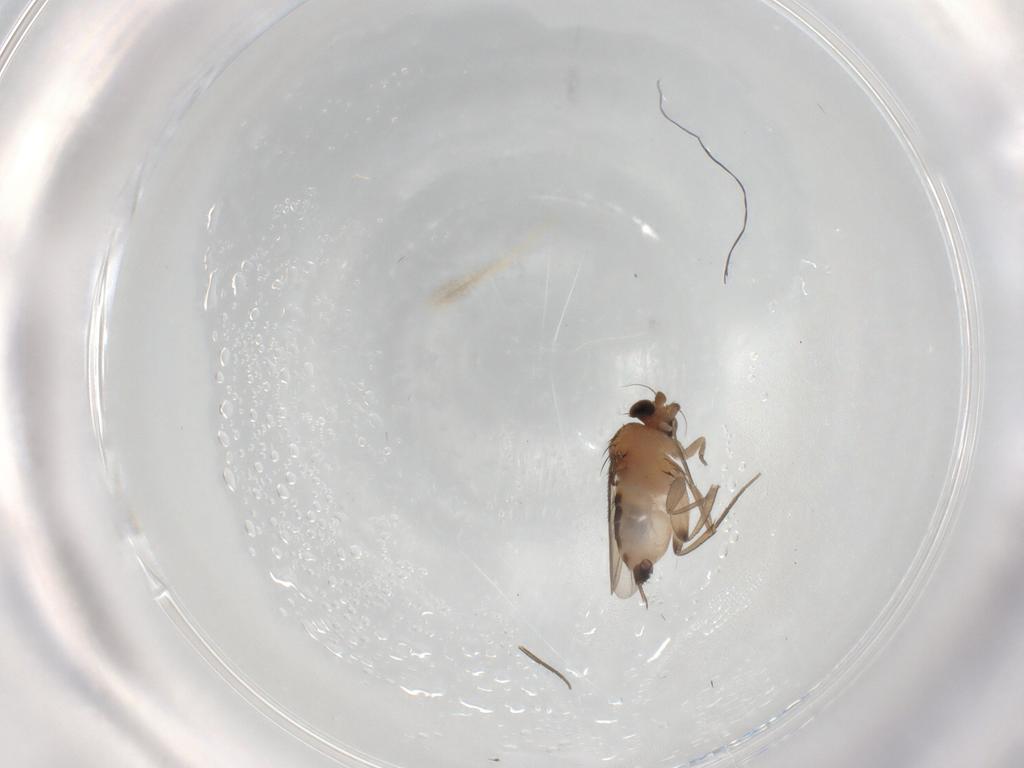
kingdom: Animalia
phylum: Arthropoda
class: Insecta
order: Diptera
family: Phoridae
